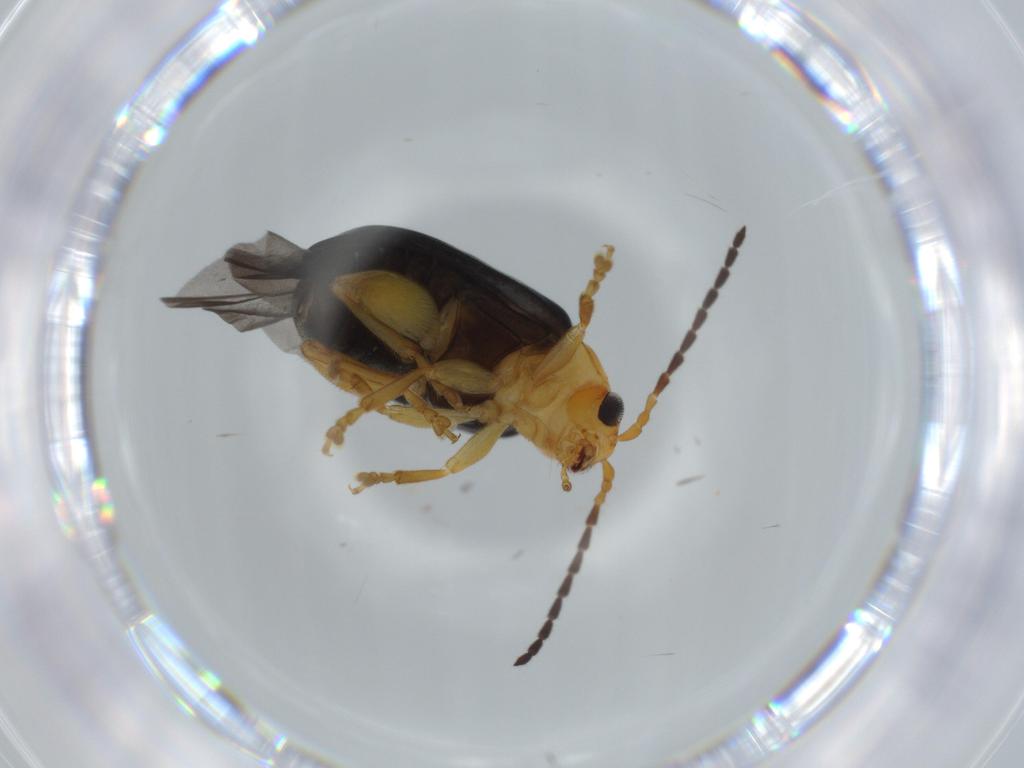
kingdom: Animalia
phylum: Arthropoda
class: Insecta
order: Coleoptera
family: Chrysomelidae
